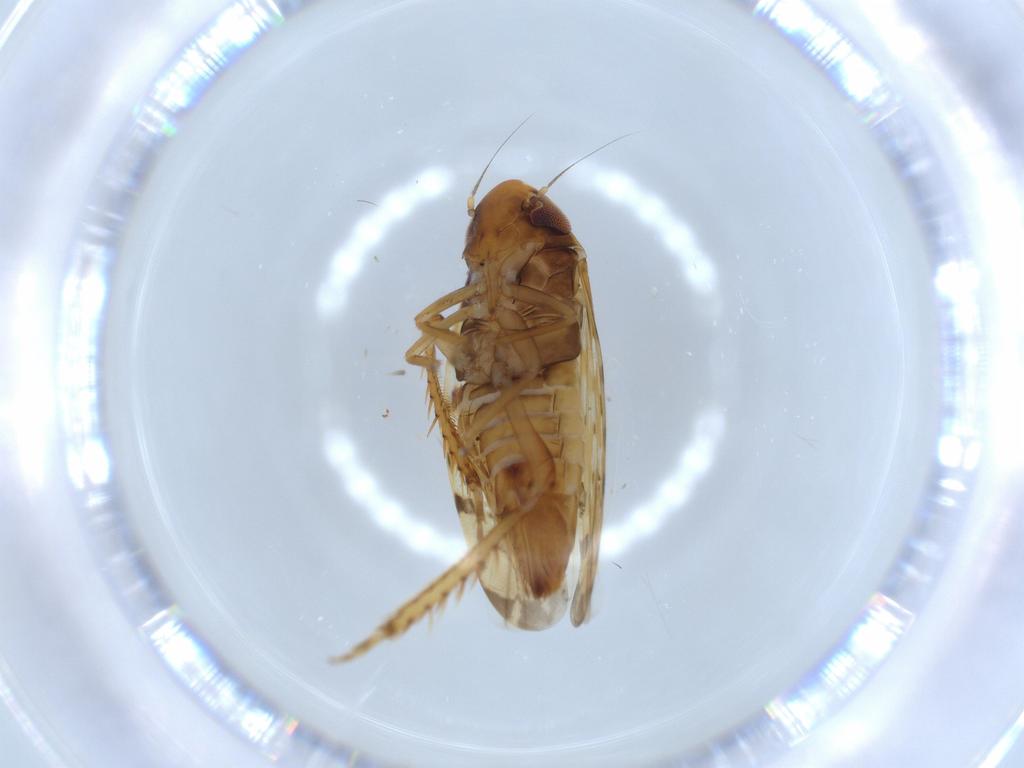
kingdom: Animalia
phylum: Arthropoda
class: Insecta
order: Hemiptera
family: Cicadellidae
